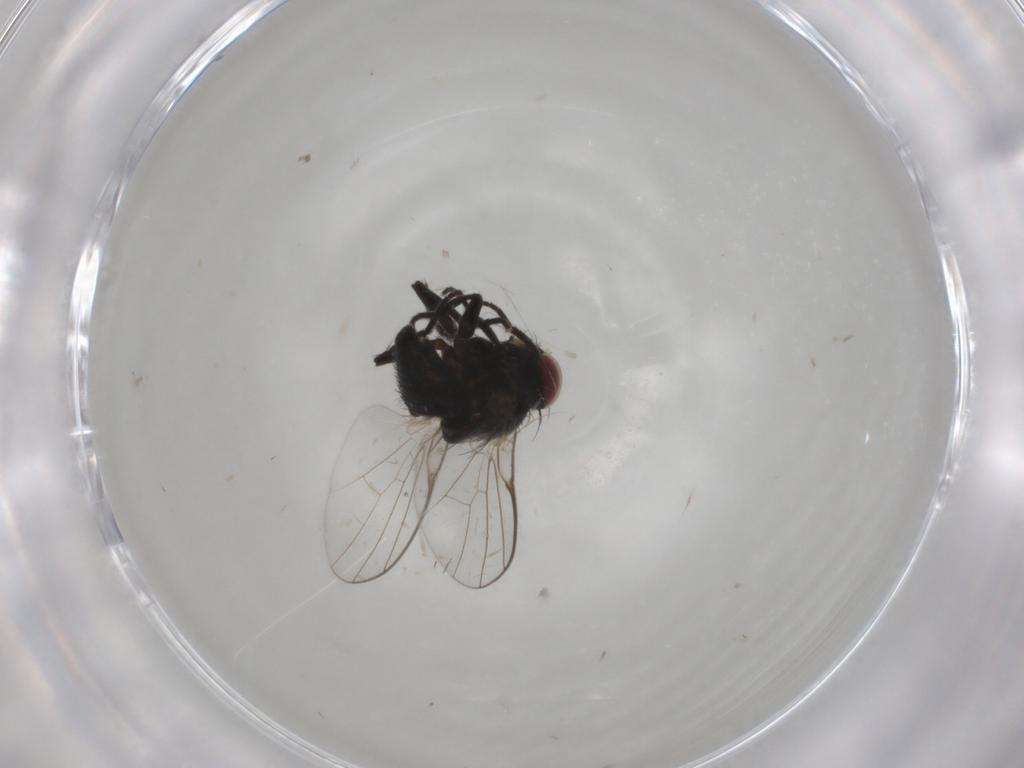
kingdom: Animalia
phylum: Arthropoda
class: Insecta
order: Diptera
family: Agromyzidae
